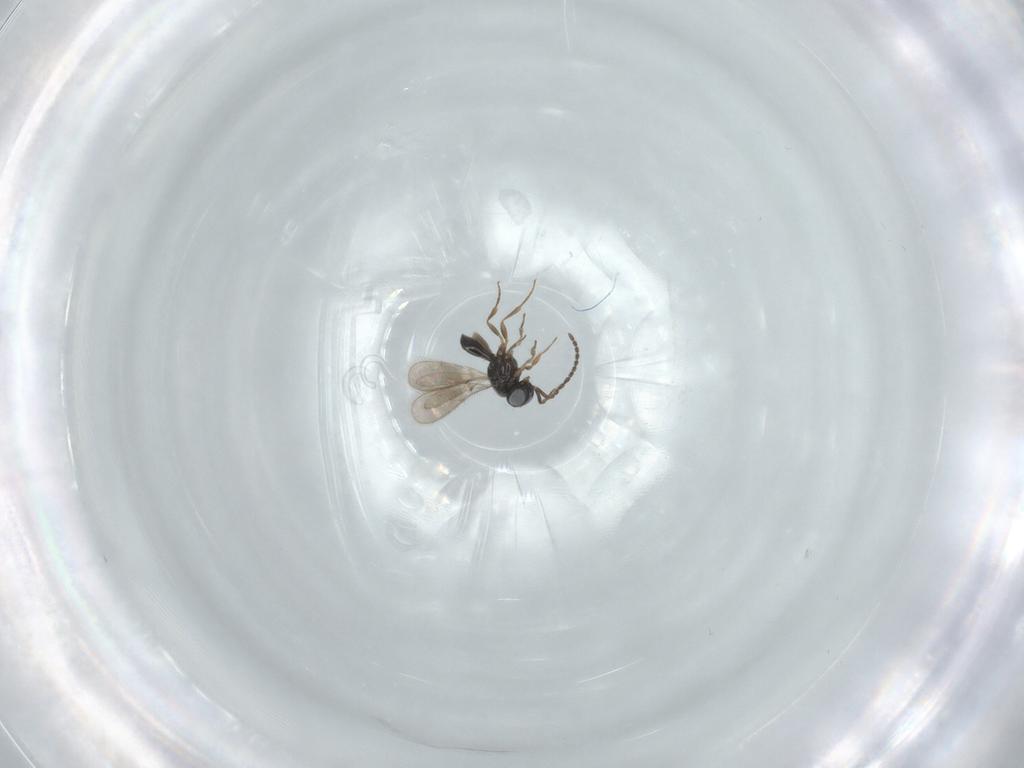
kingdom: Animalia
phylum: Arthropoda
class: Insecta
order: Hymenoptera
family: Scelionidae
